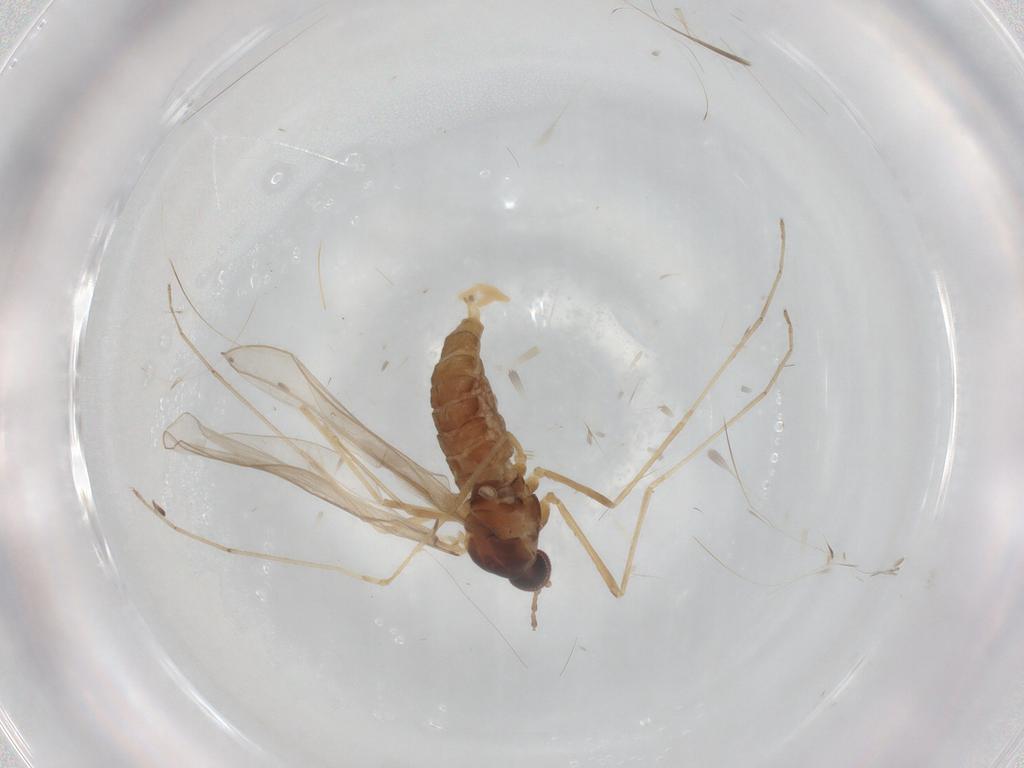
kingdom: Animalia
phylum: Arthropoda
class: Insecta
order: Diptera
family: Cecidomyiidae
